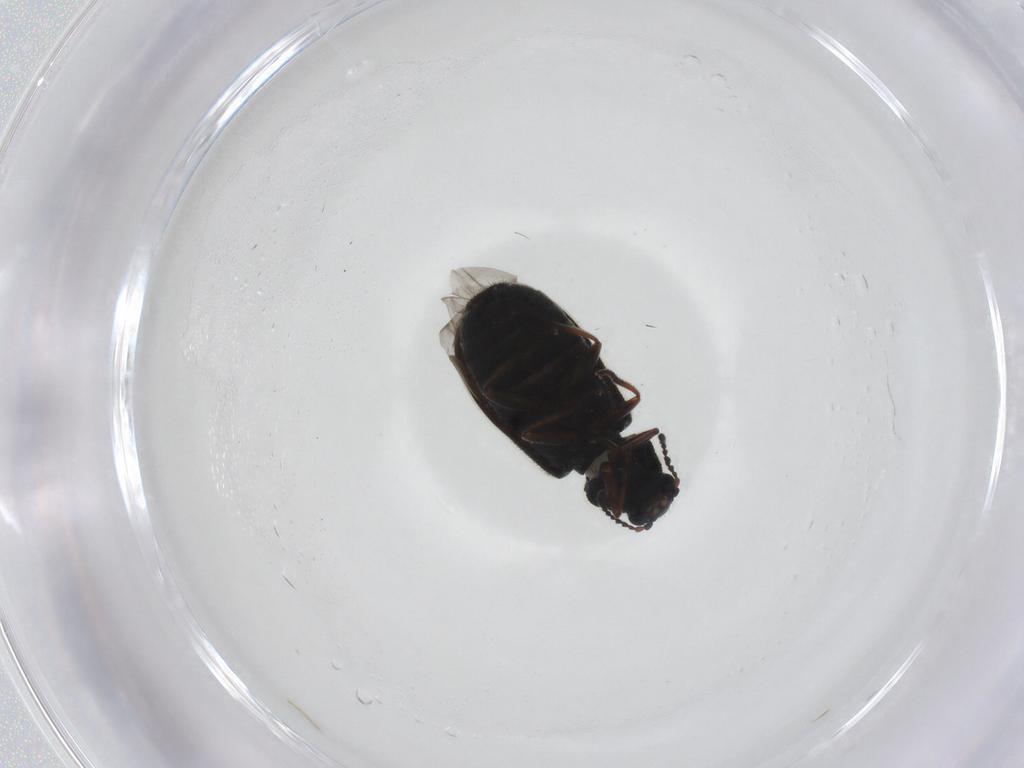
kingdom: Animalia
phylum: Arthropoda
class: Insecta
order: Coleoptera
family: Melyridae
